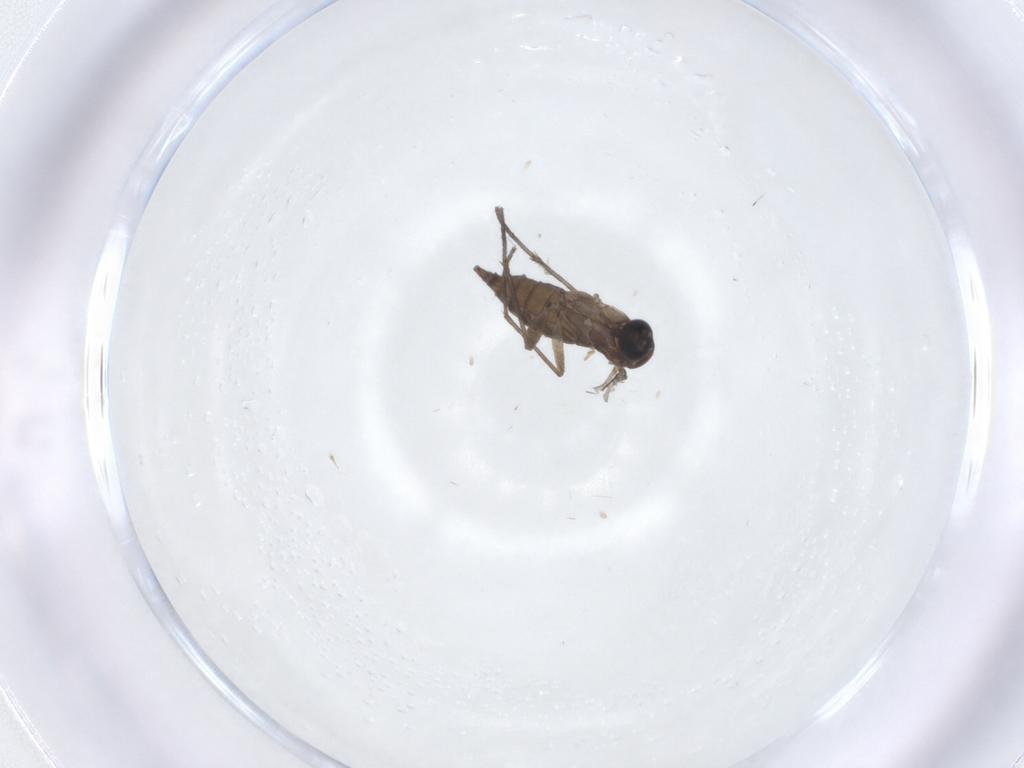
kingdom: Animalia
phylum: Arthropoda
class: Insecta
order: Diptera
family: Sciaridae
